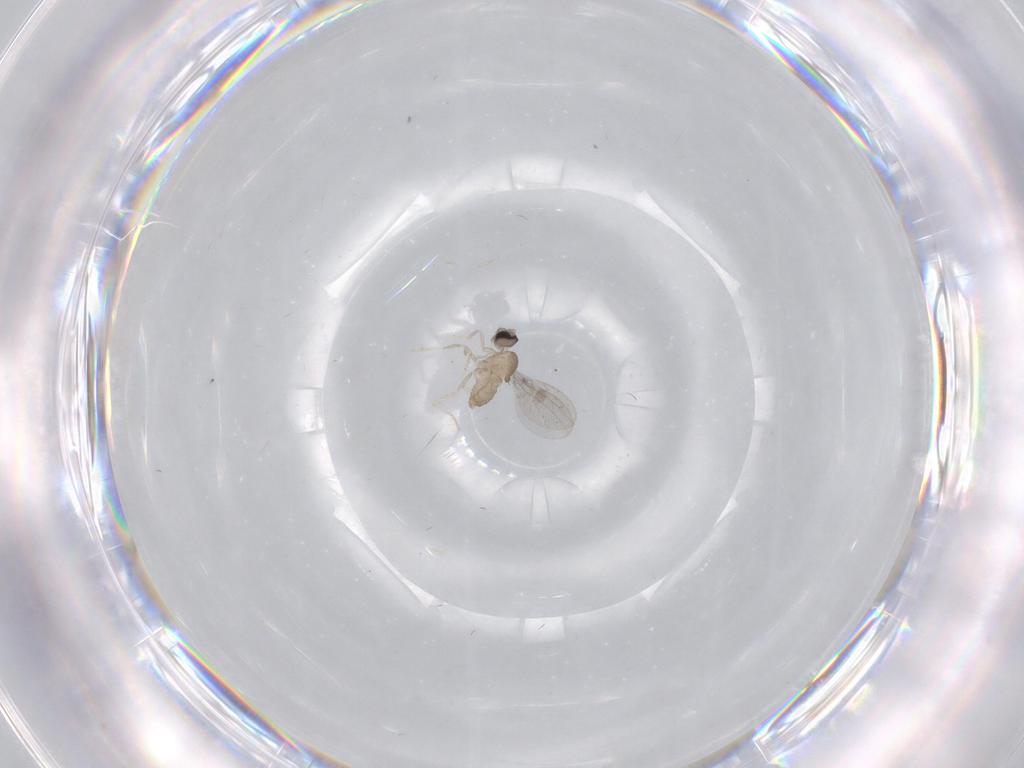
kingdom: Animalia
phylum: Arthropoda
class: Insecta
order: Diptera
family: Cecidomyiidae
